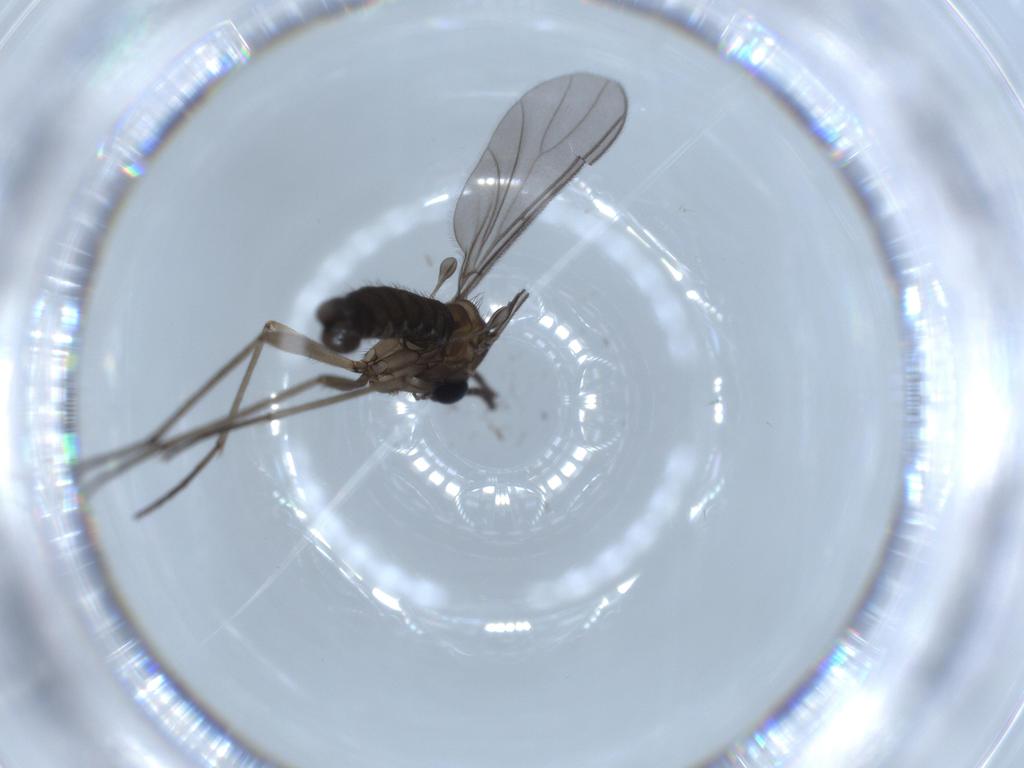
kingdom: Animalia
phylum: Arthropoda
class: Insecta
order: Diptera
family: Sciaridae
